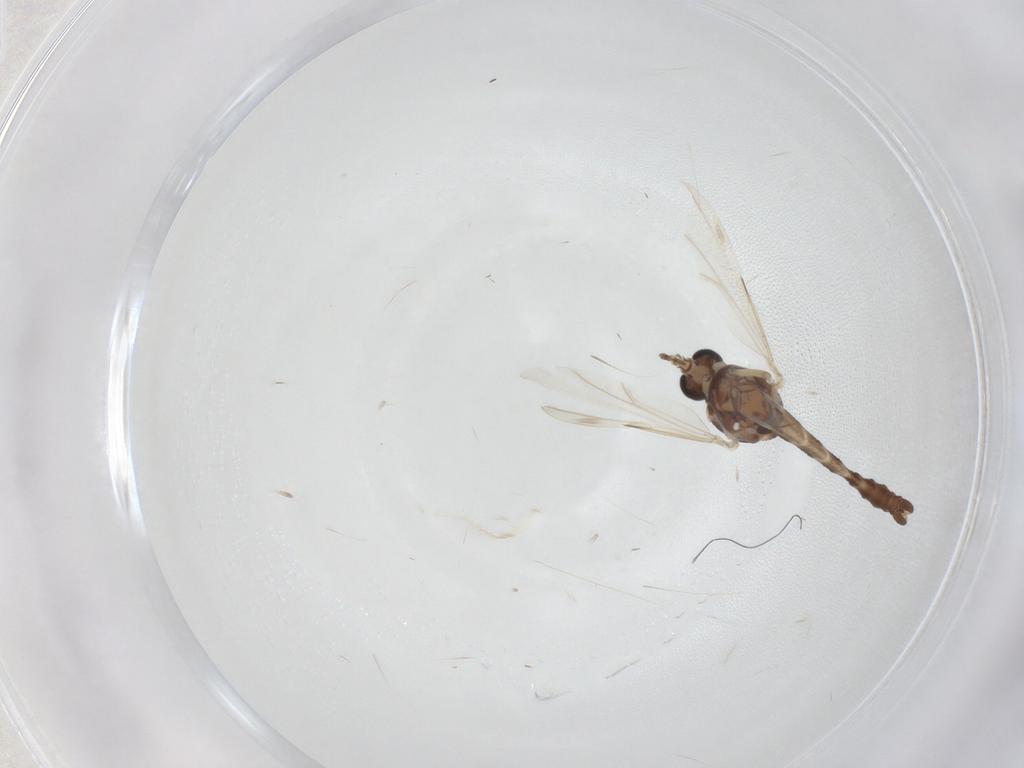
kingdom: Animalia
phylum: Arthropoda
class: Insecta
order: Diptera
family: Ceratopogonidae
